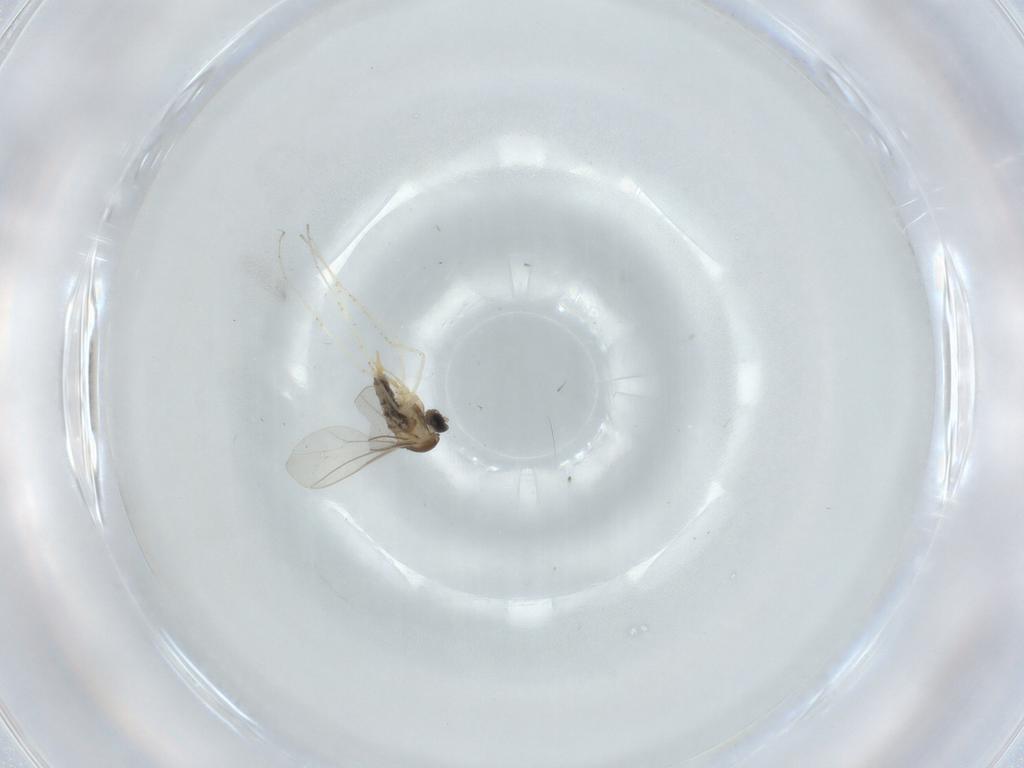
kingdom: Animalia
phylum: Arthropoda
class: Insecta
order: Diptera
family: Cecidomyiidae
